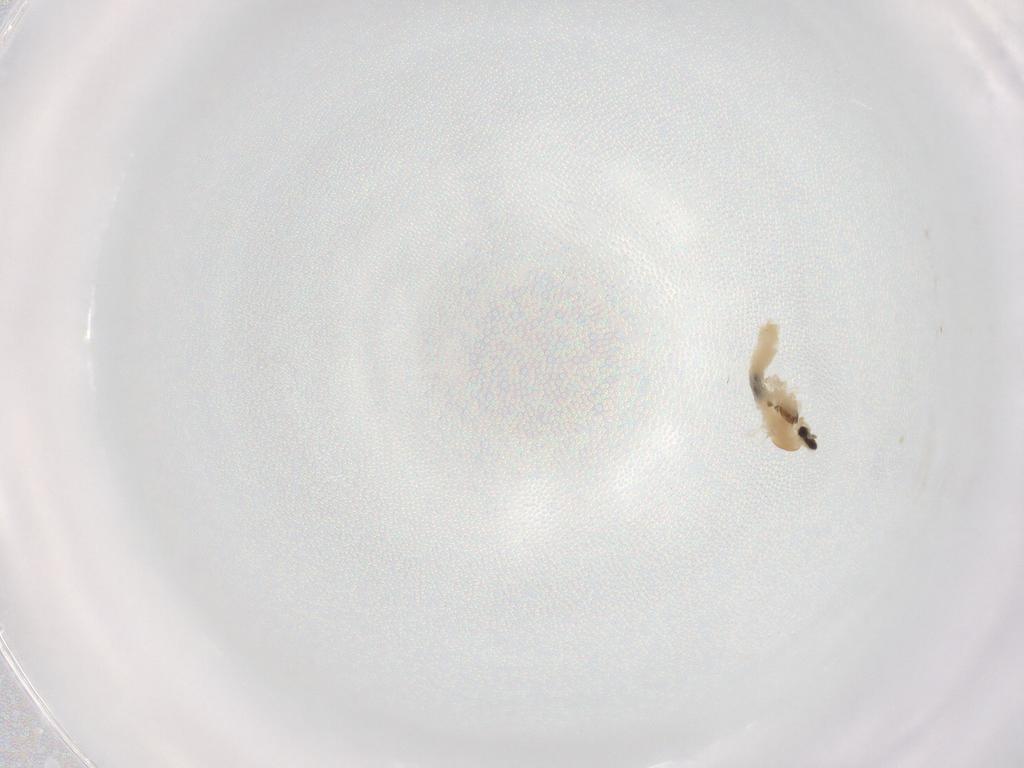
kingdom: Animalia
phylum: Arthropoda
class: Insecta
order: Diptera
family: Cecidomyiidae
